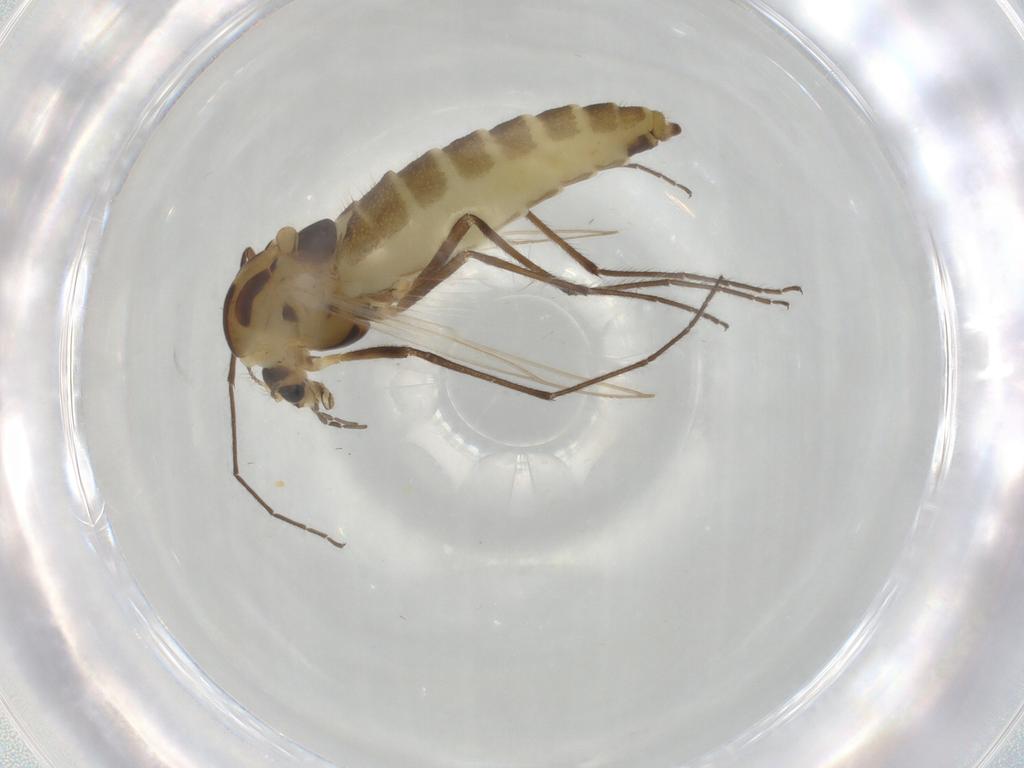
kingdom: Animalia
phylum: Arthropoda
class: Insecta
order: Diptera
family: Chironomidae
